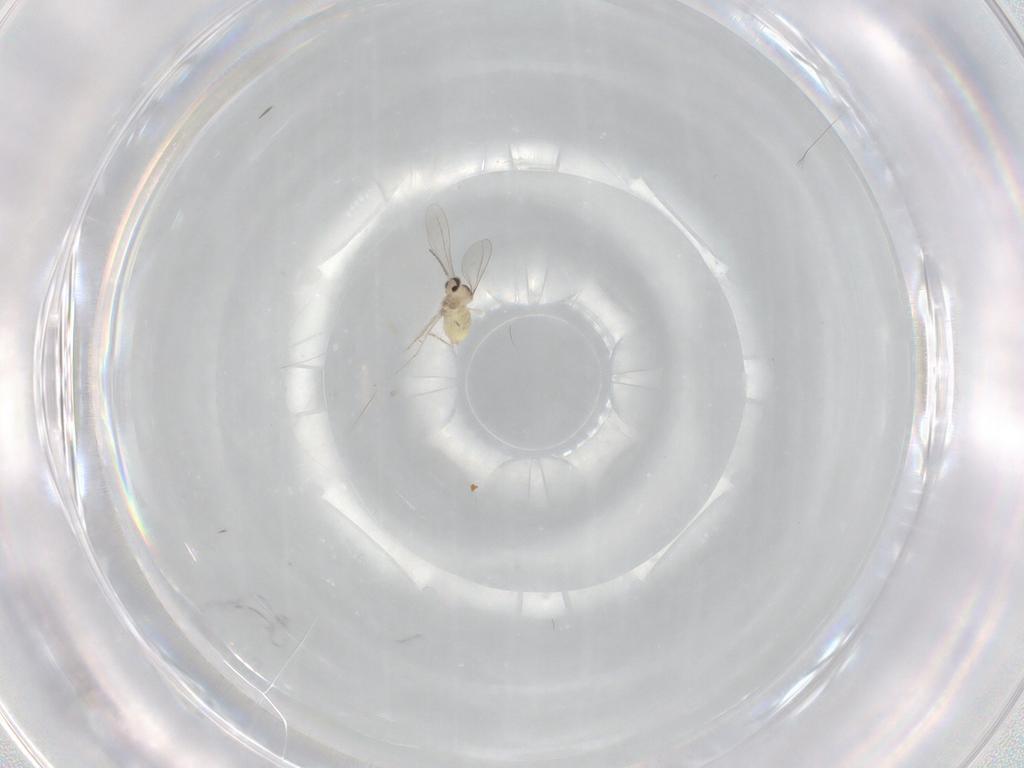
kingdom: Animalia
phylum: Arthropoda
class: Insecta
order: Diptera
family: Cecidomyiidae
